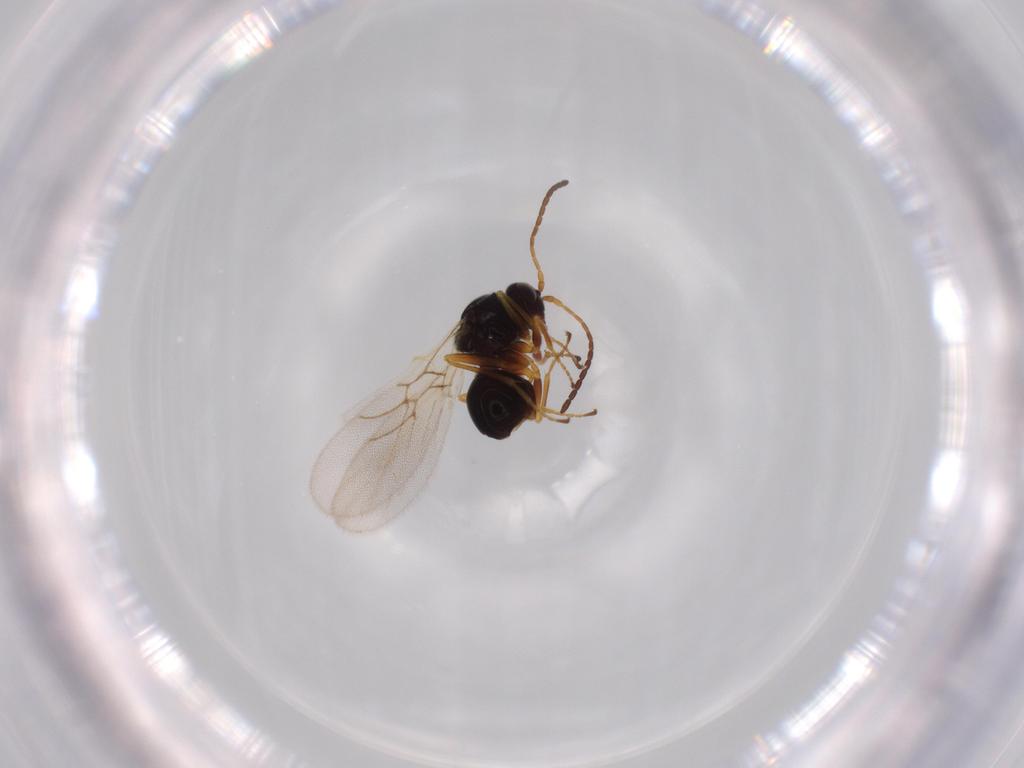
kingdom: Animalia
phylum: Arthropoda
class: Insecta
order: Hymenoptera
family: Figitidae
